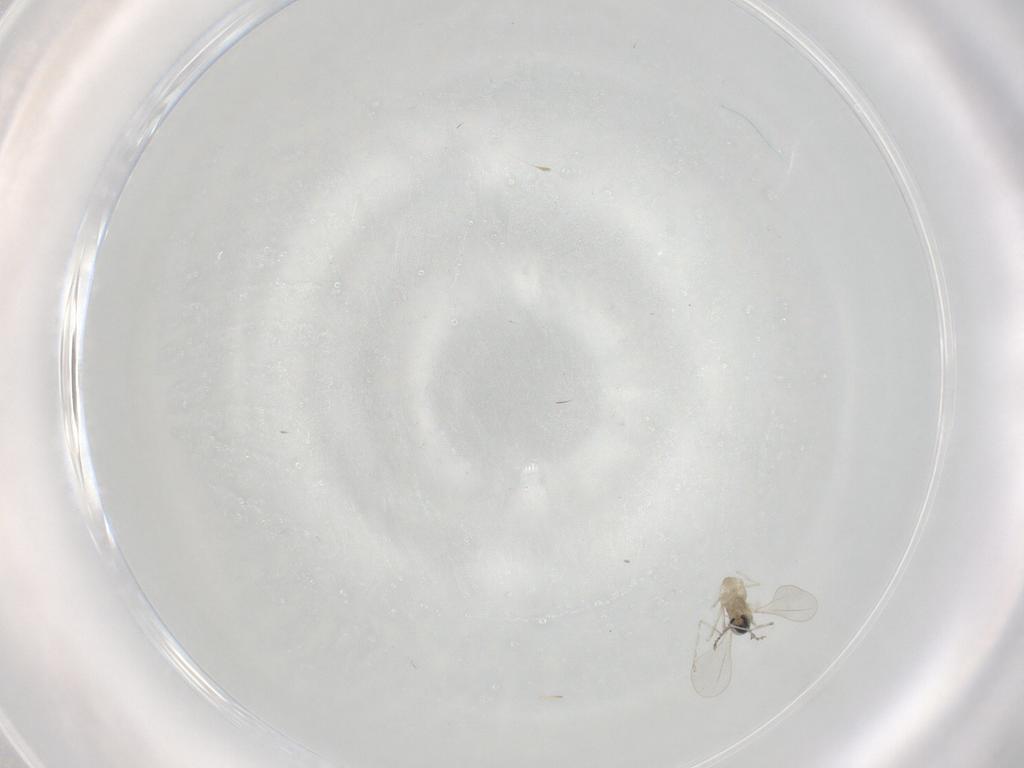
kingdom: Animalia
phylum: Arthropoda
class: Insecta
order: Diptera
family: Cecidomyiidae
